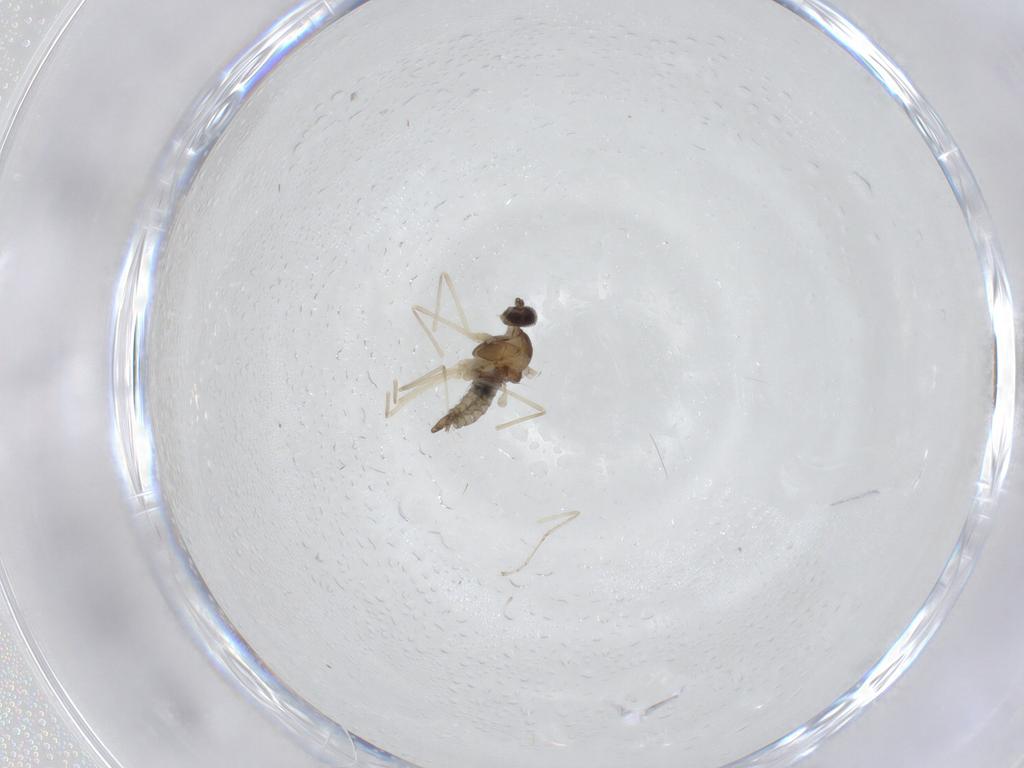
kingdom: Animalia
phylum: Arthropoda
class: Insecta
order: Diptera
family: Cecidomyiidae
